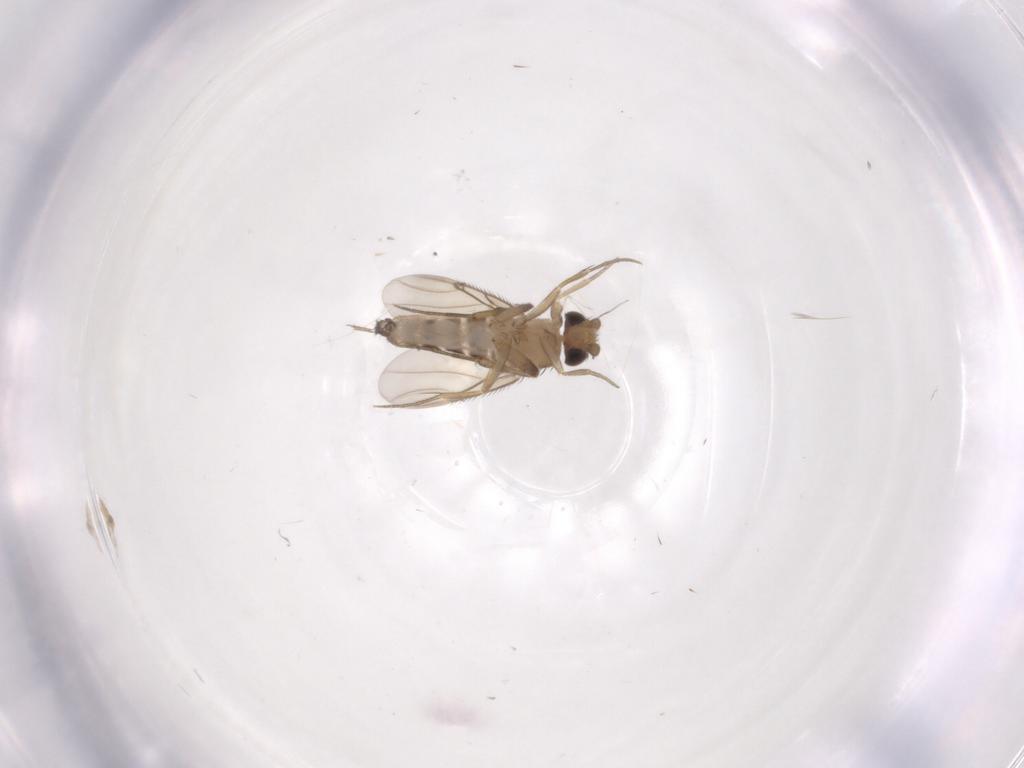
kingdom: Animalia
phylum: Arthropoda
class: Insecta
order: Diptera
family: Phoridae
